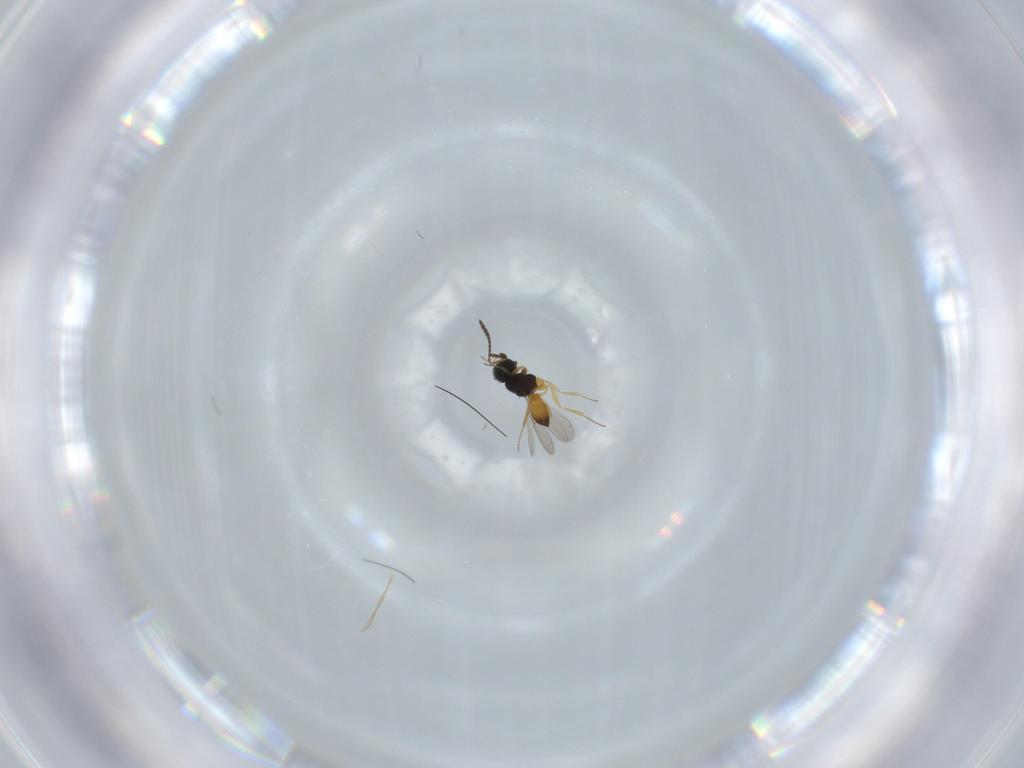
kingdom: Animalia
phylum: Arthropoda
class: Insecta
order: Hymenoptera
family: Scelionidae
